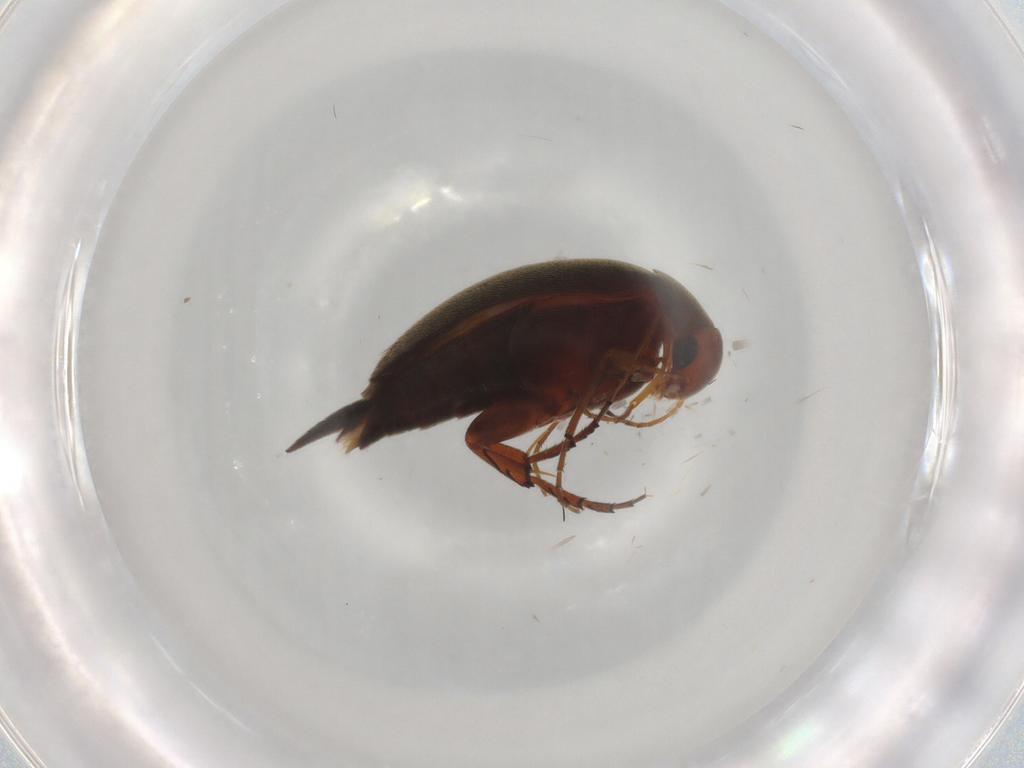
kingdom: Animalia
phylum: Arthropoda
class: Insecta
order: Coleoptera
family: Mordellidae
